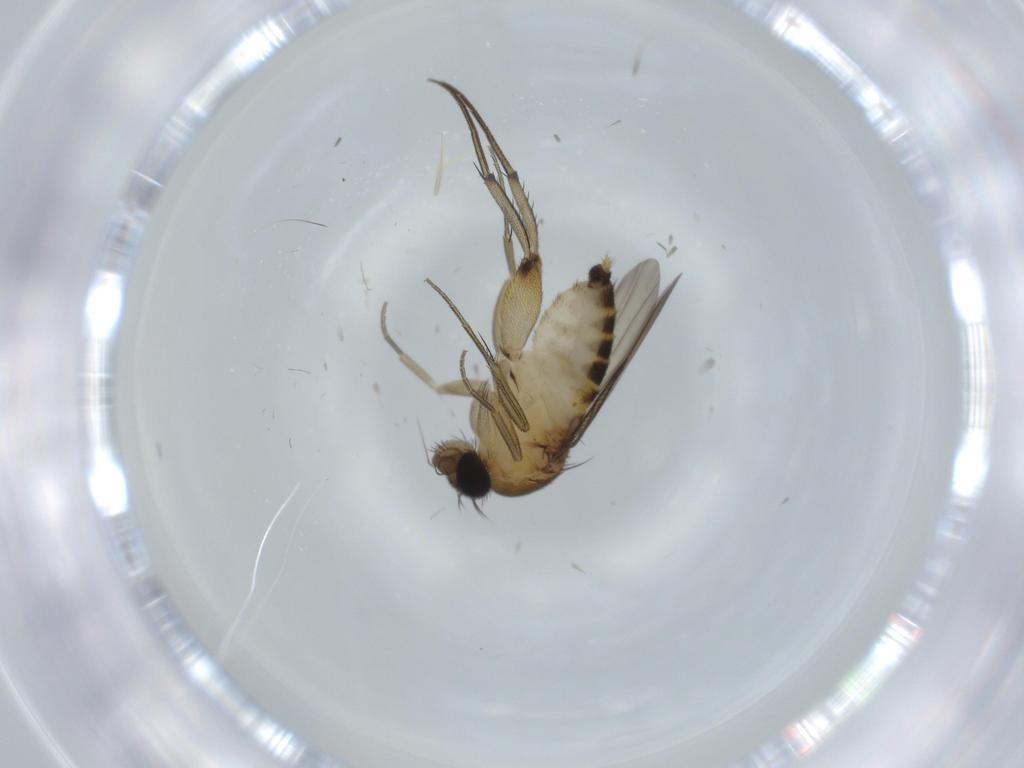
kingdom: Animalia
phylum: Arthropoda
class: Insecta
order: Diptera
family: Phoridae
